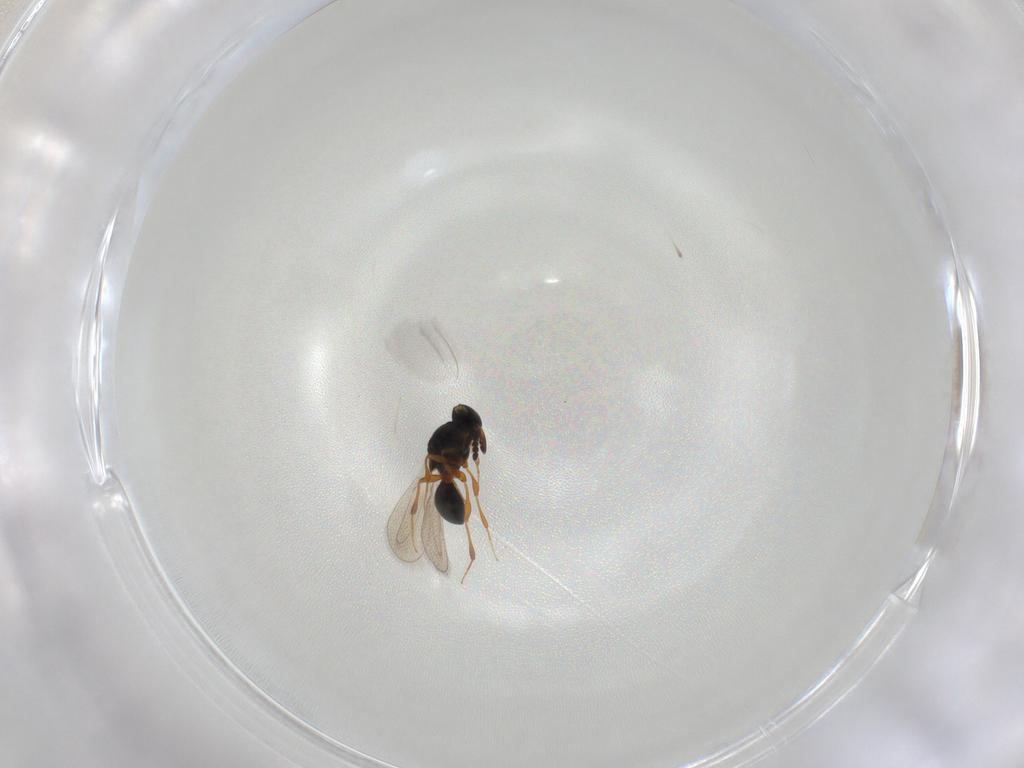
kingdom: Animalia
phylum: Arthropoda
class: Insecta
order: Hymenoptera
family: Platygastridae
